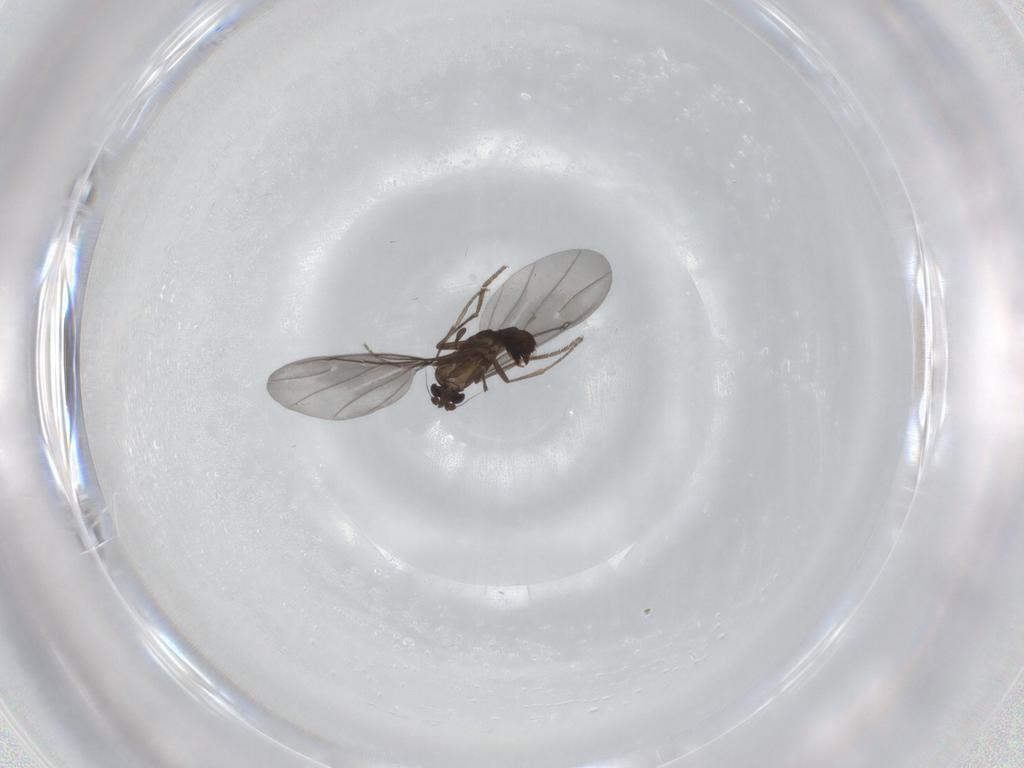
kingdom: Animalia
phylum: Arthropoda
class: Insecta
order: Diptera
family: Phoridae
